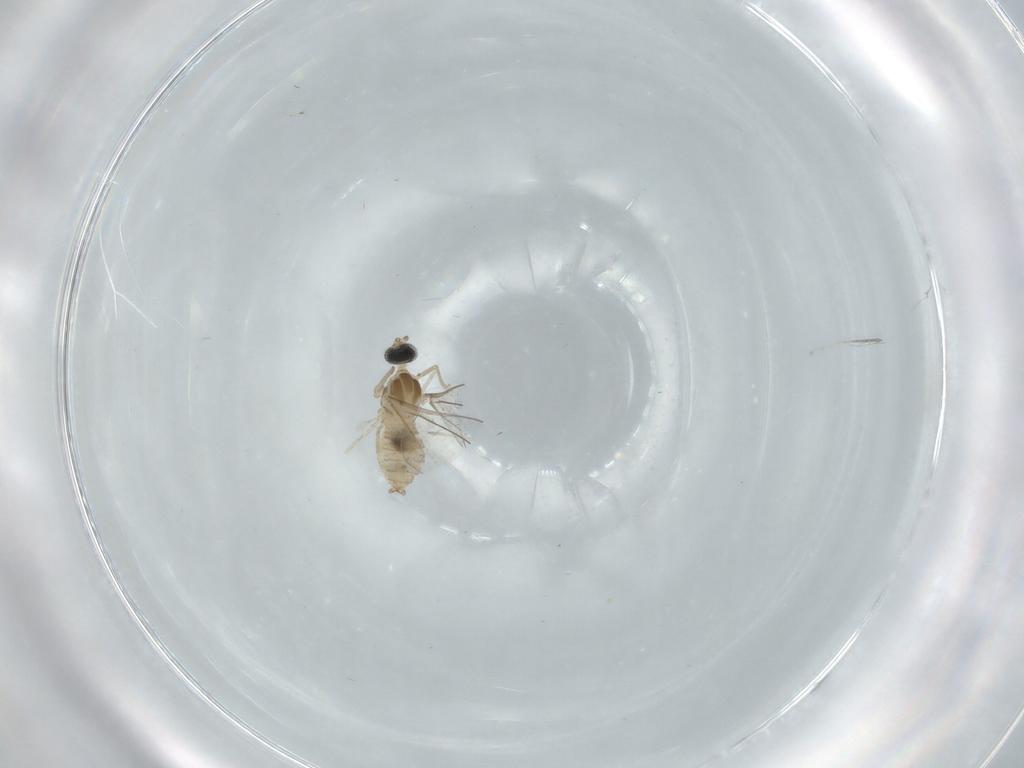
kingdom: Animalia
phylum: Arthropoda
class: Insecta
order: Diptera
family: Cecidomyiidae
